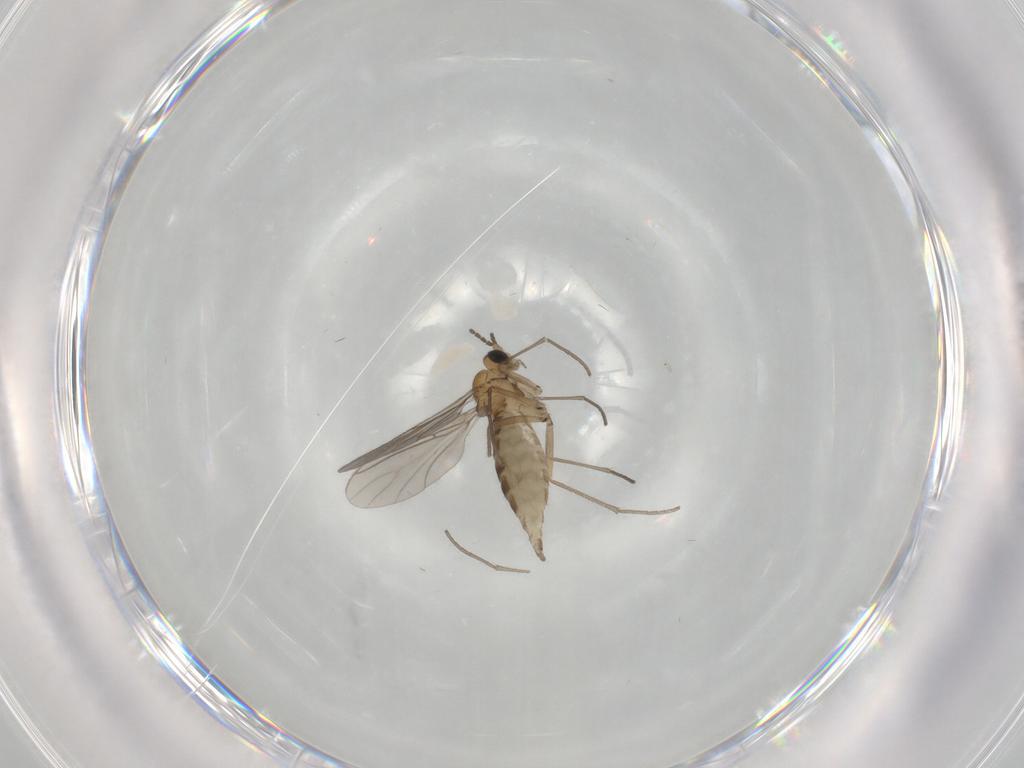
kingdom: Animalia
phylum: Arthropoda
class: Insecta
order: Diptera
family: Sciaridae
